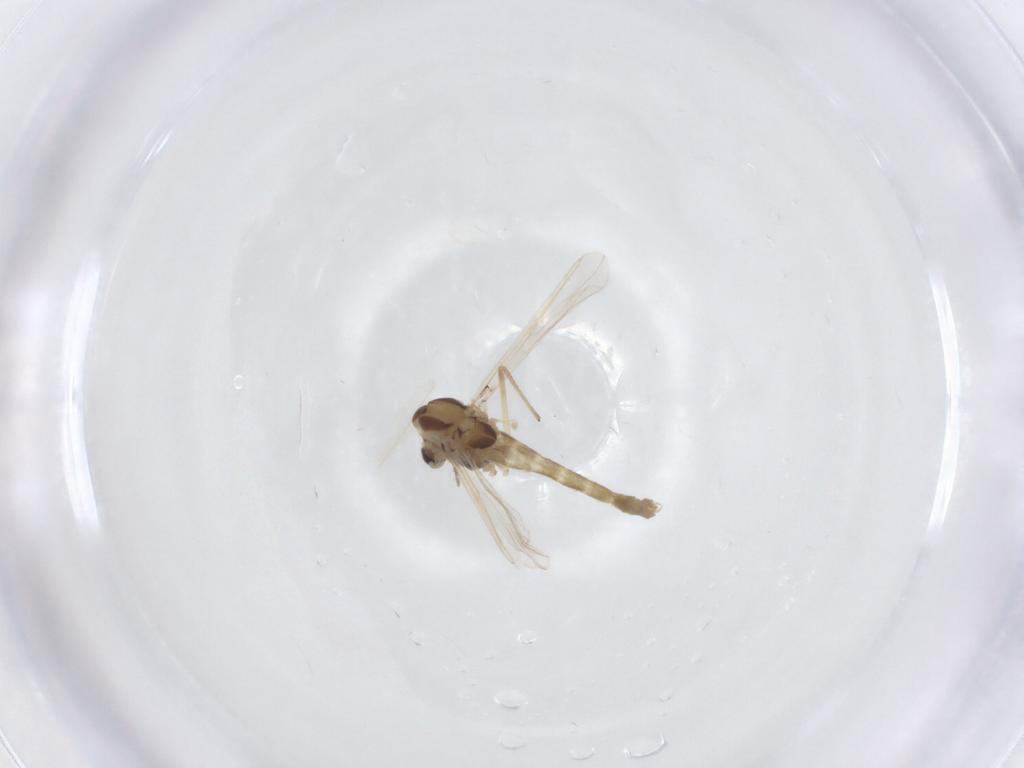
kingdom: Animalia
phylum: Arthropoda
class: Insecta
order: Diptera
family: Chironomidae
